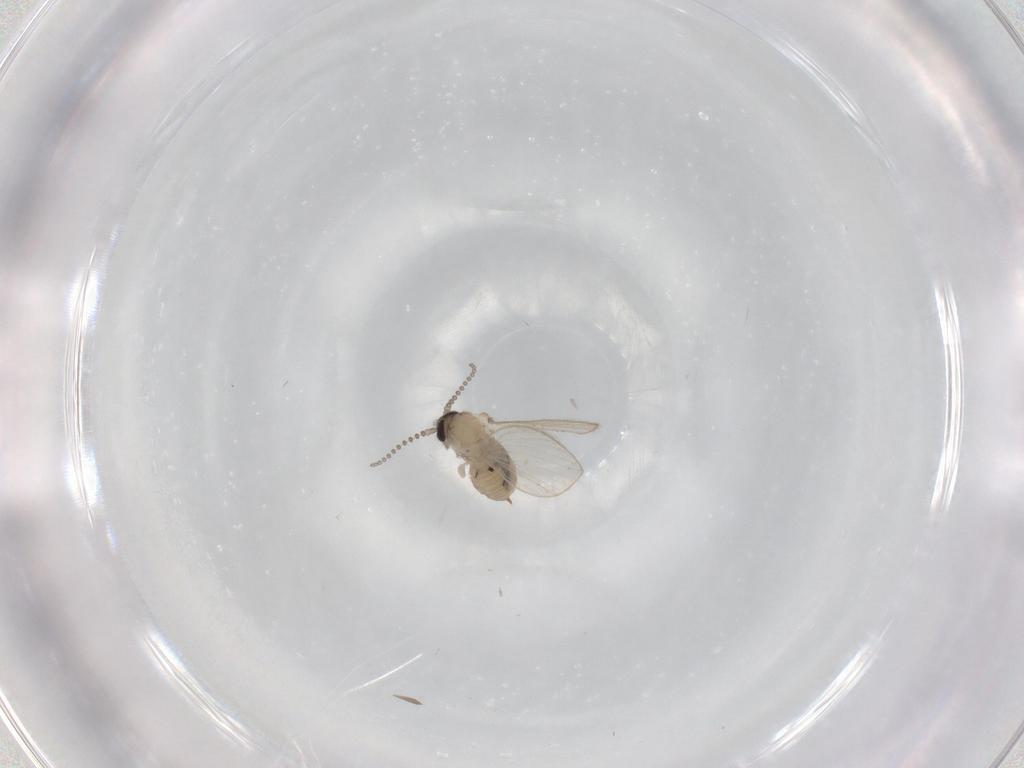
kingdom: Animalia
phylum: Arthropoda
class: Insecta
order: Diptera
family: Psychodidae
